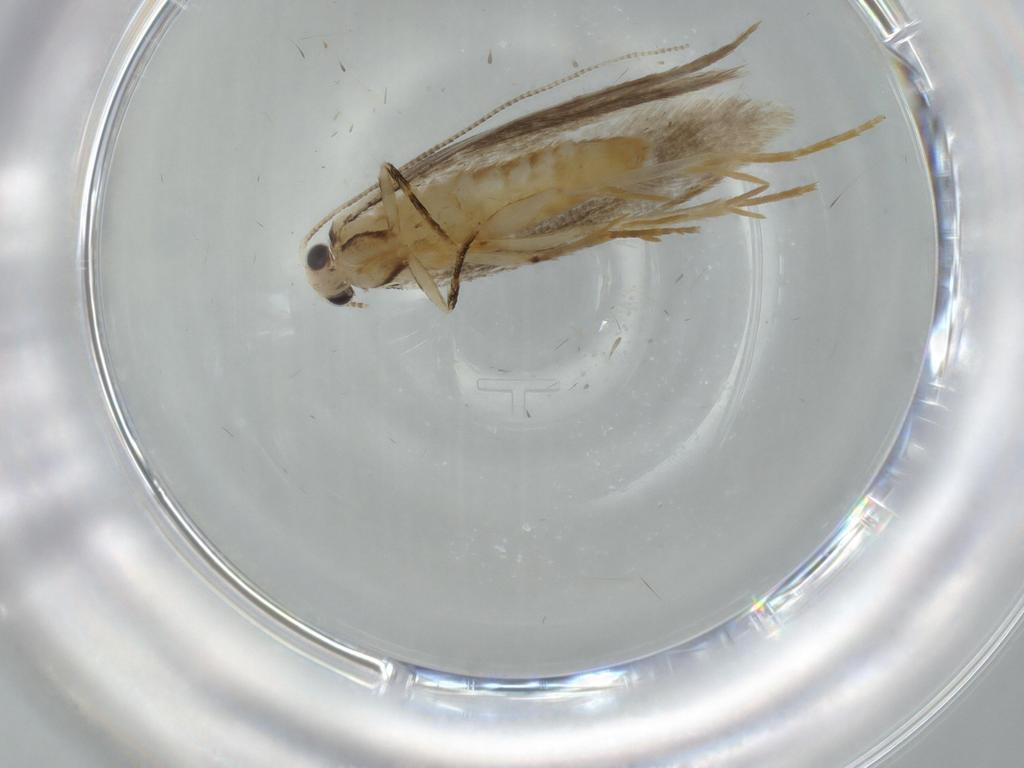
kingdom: Animalia
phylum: Arthropoda
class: Insecta
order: Lepidoptera
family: Tineidae
